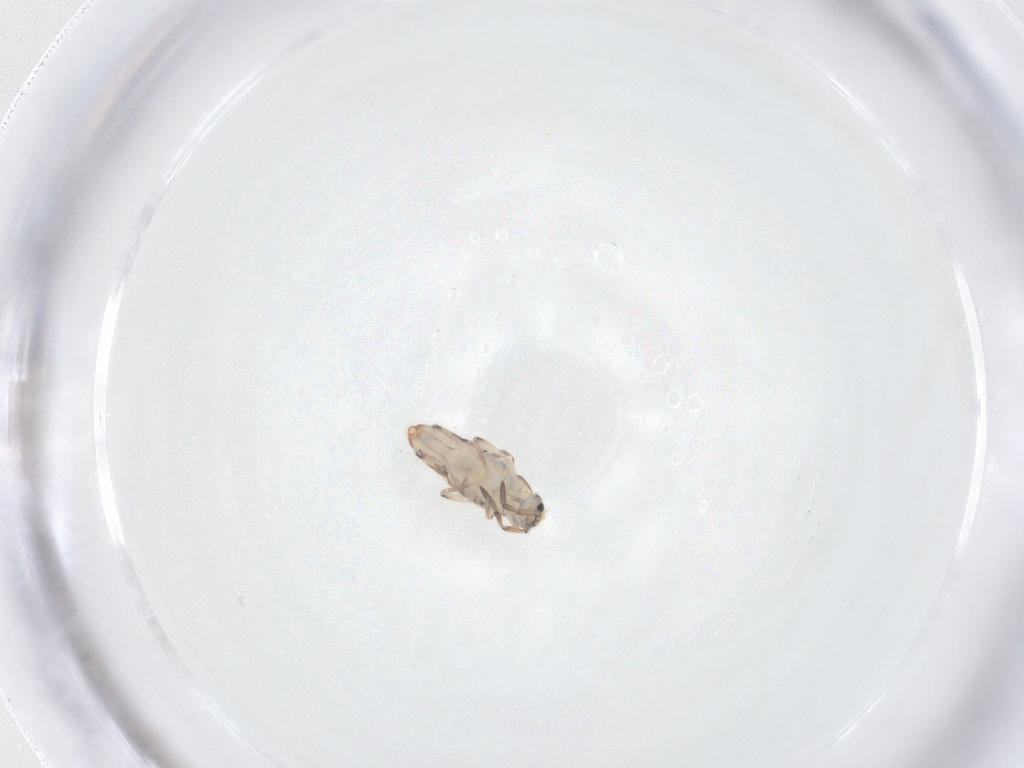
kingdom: Animalia
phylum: Arthropoda
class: Collembola
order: Entomobryomorpha
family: Entomobryidae
